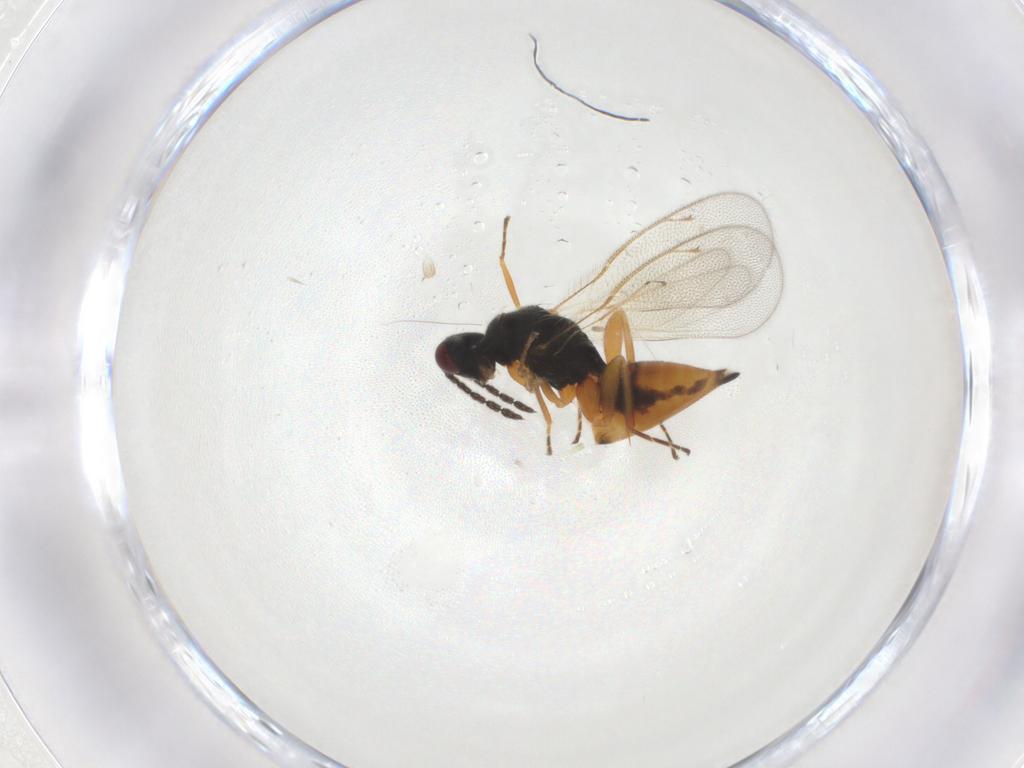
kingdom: Animalia
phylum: Arthropoda
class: Insecta
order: Hymenoptera
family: Eulophidae
